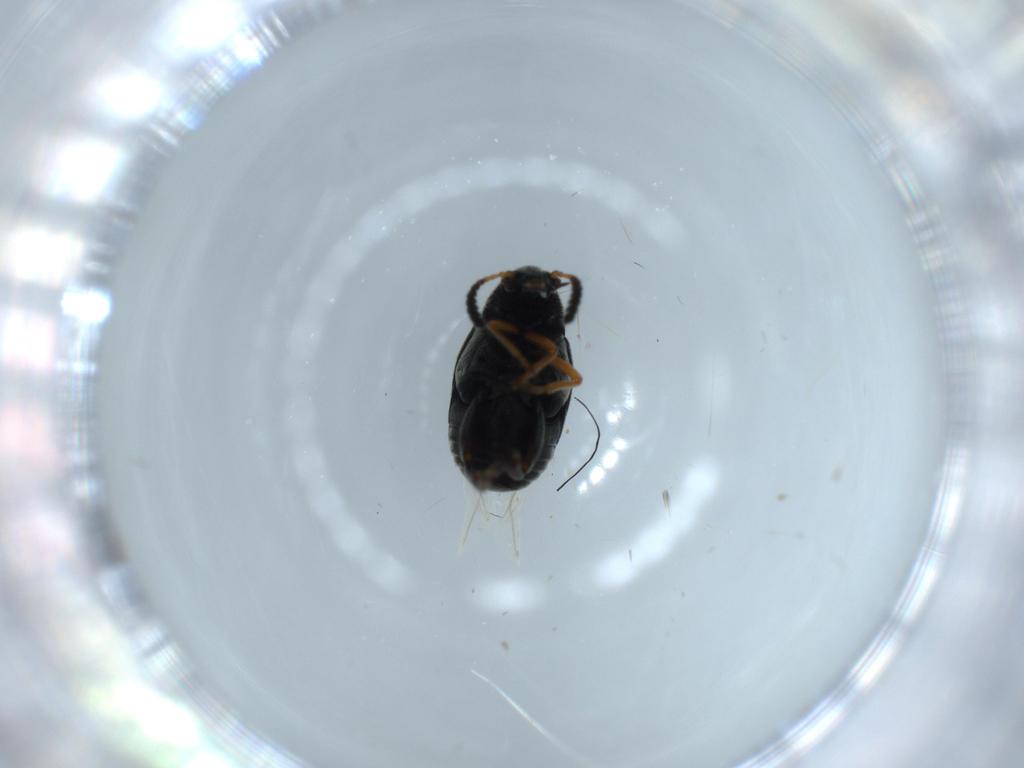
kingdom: Animalia
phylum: Arthropoda
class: Insecta
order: Coleoptera
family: Chrysomelidae
